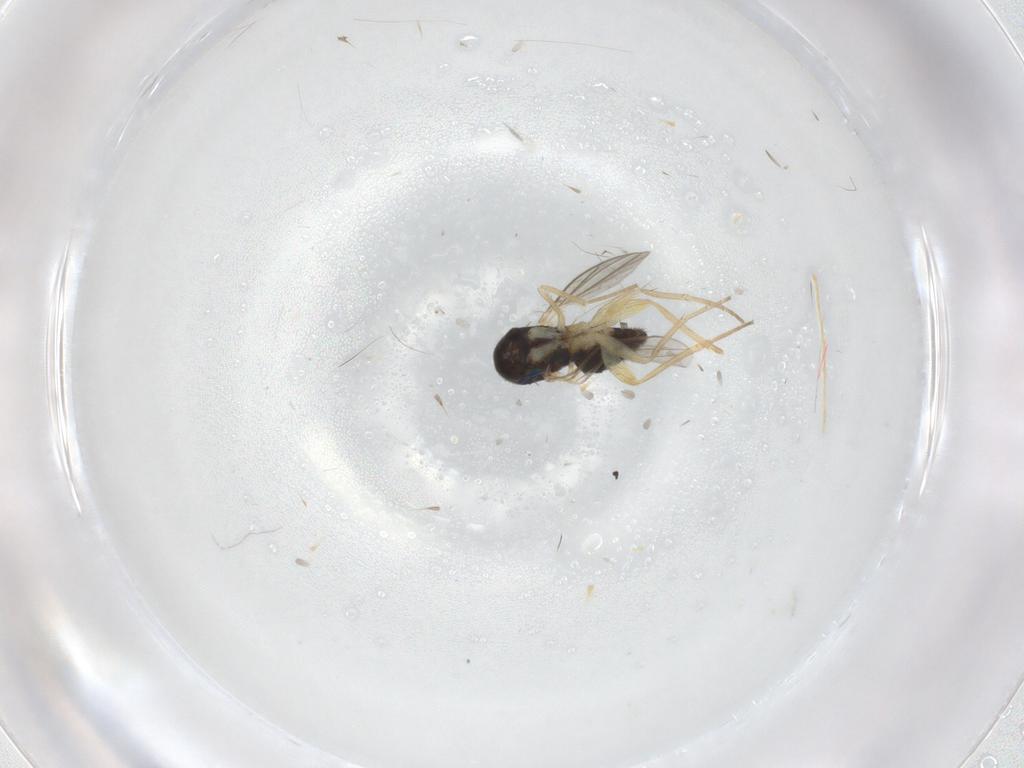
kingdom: Animalia
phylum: Arthropoda
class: Insecta
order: Diptera
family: Dolichopodidae
